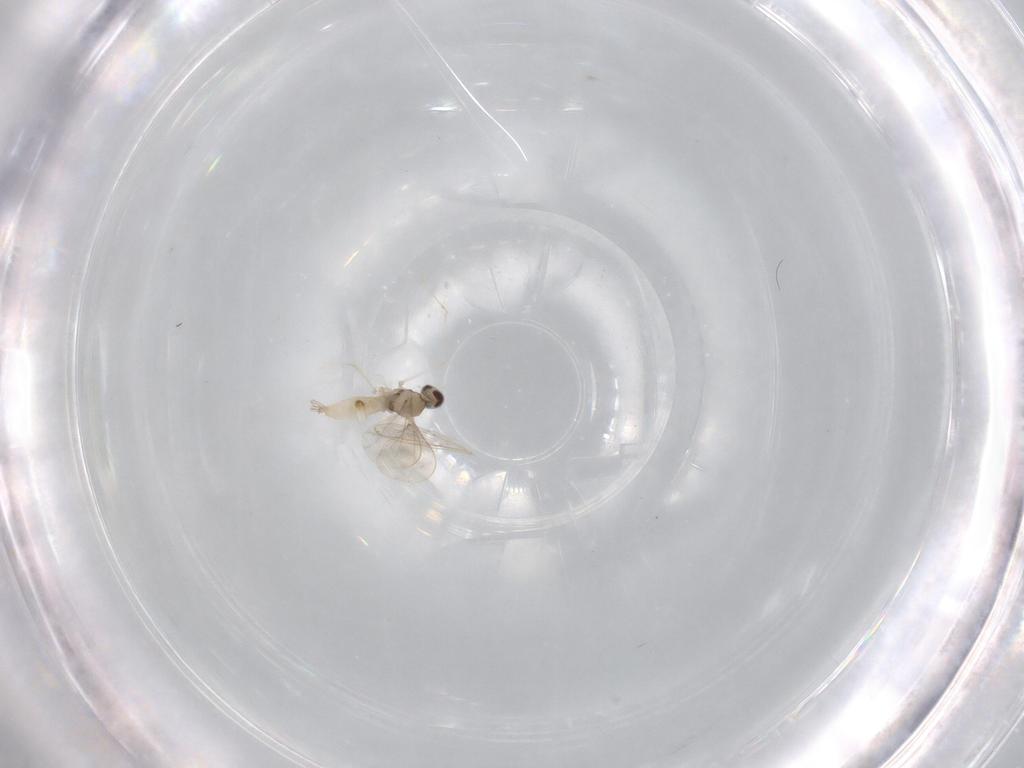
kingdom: Animalia
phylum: Arthropoda
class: Insecta
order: Diptera
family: Cecidomyiidae
